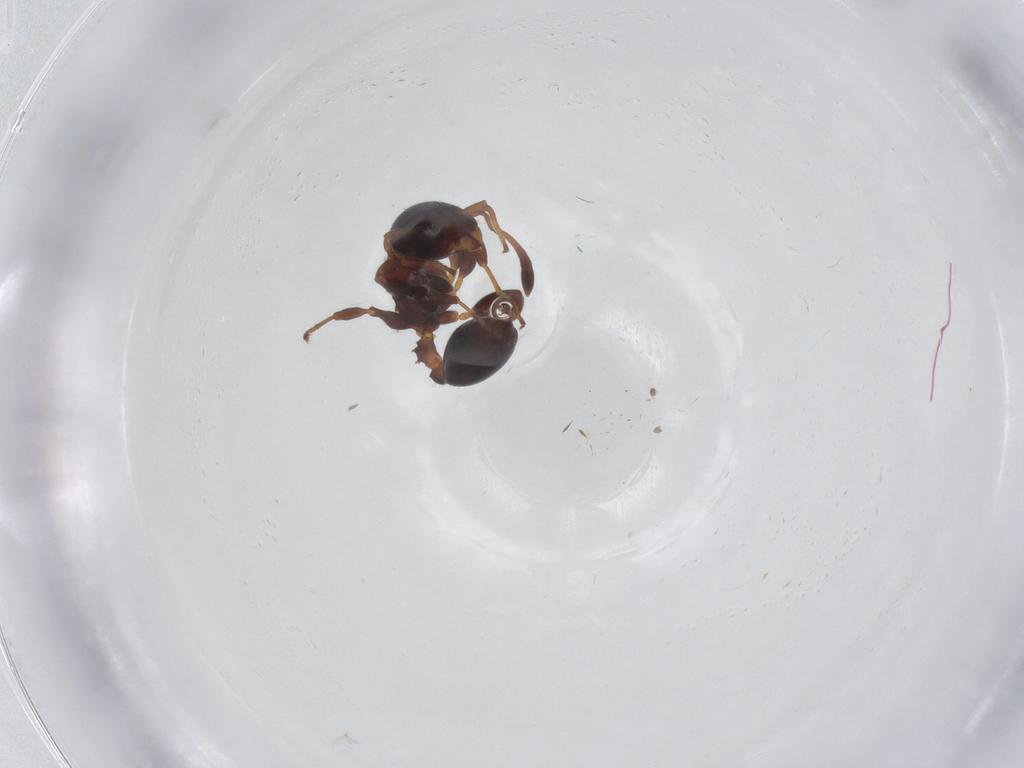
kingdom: Animalia
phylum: Arthropoda
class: Insecta
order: Hymenoptera
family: Formicidae
